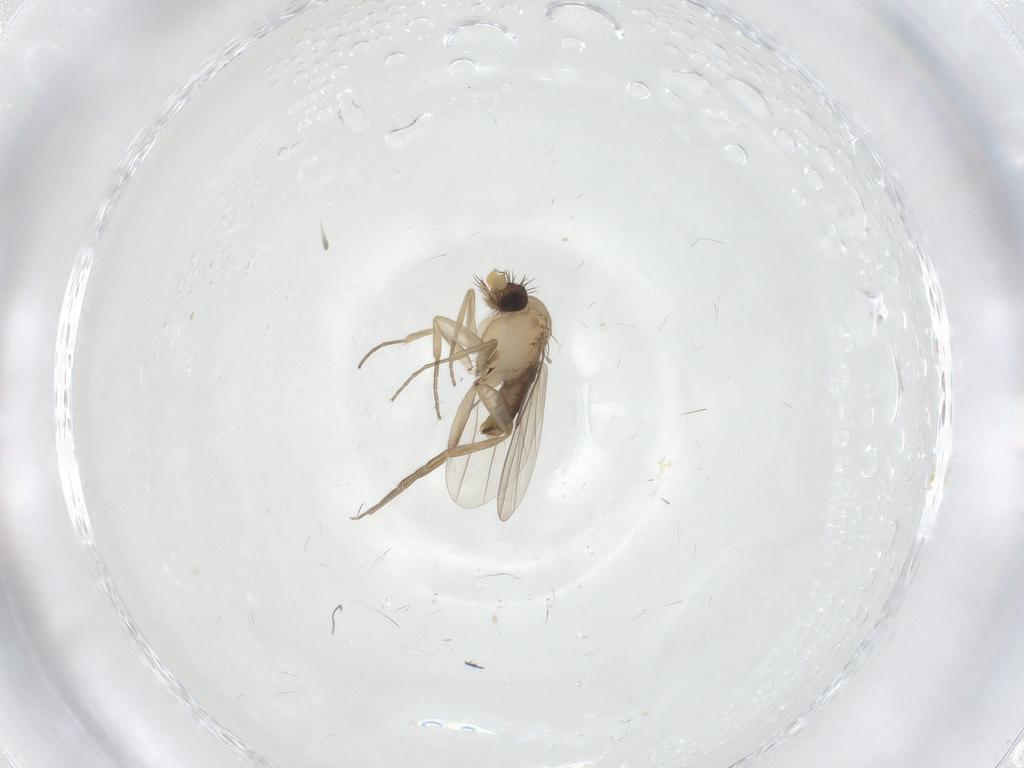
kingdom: Animalia
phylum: Arthropoda
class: Insecta
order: Diptera
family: Phoridae
